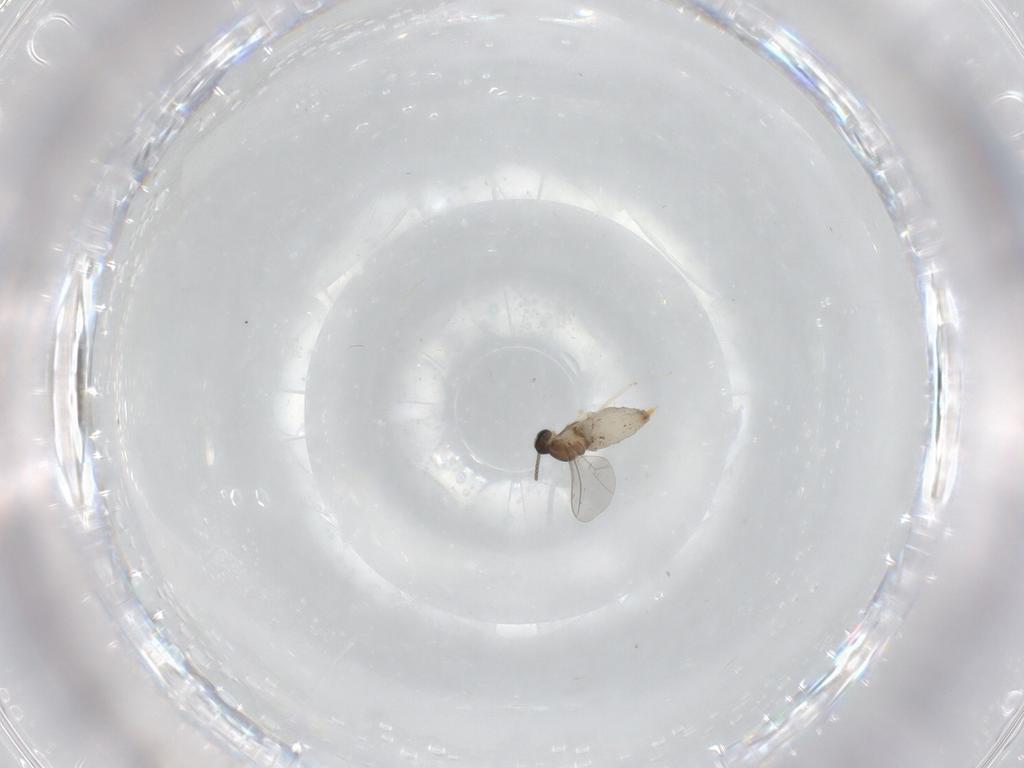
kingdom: Animalia
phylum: Arthropoda
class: Insecta
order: Diptera
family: Cecidomyiidae
